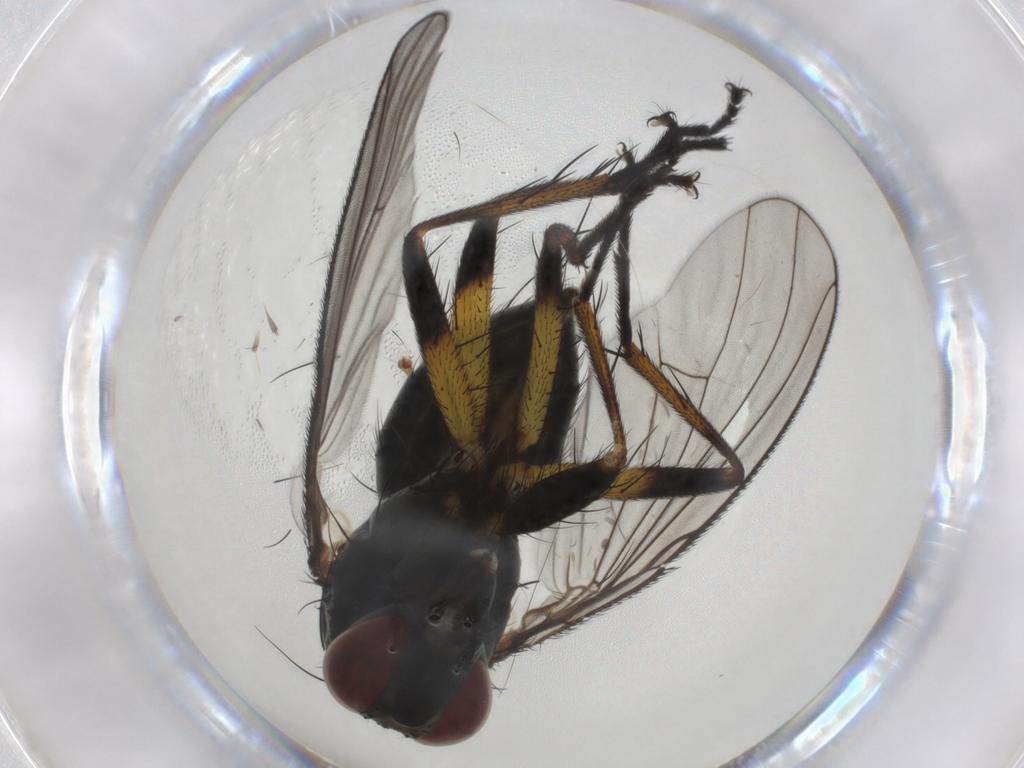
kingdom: Animalia
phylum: Arthropoda
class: Insecta
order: Diptera
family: Muscidae
